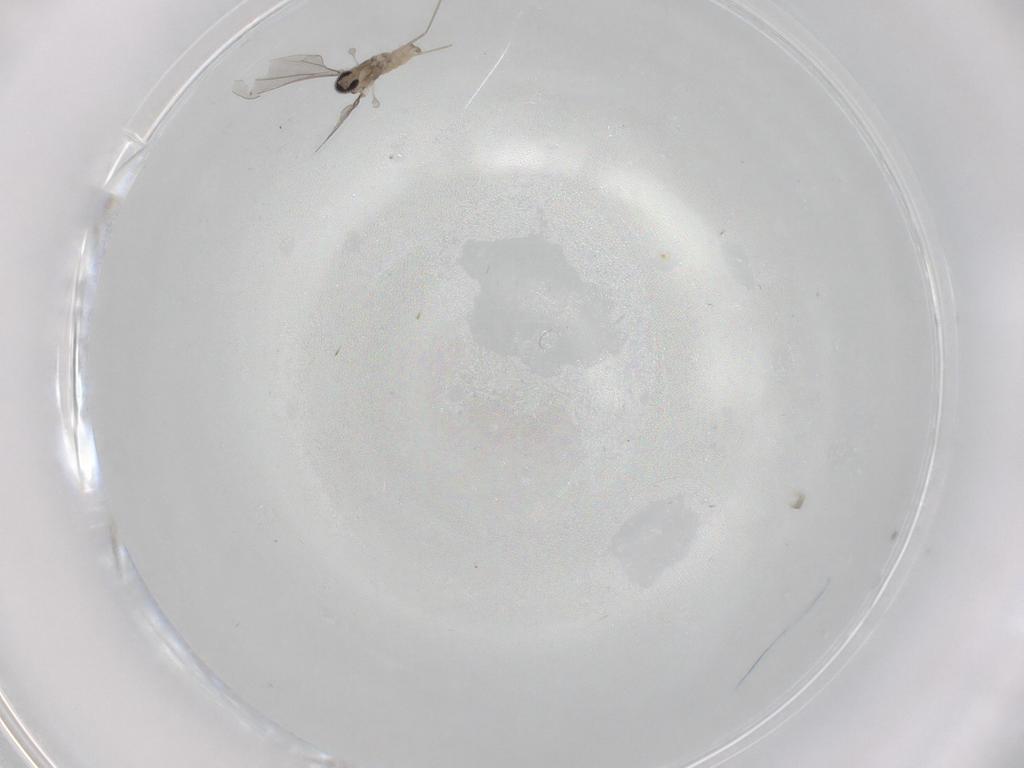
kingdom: Animalia
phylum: Arthropoda
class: Insecta
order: Diptera
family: Cecidomyiidae
